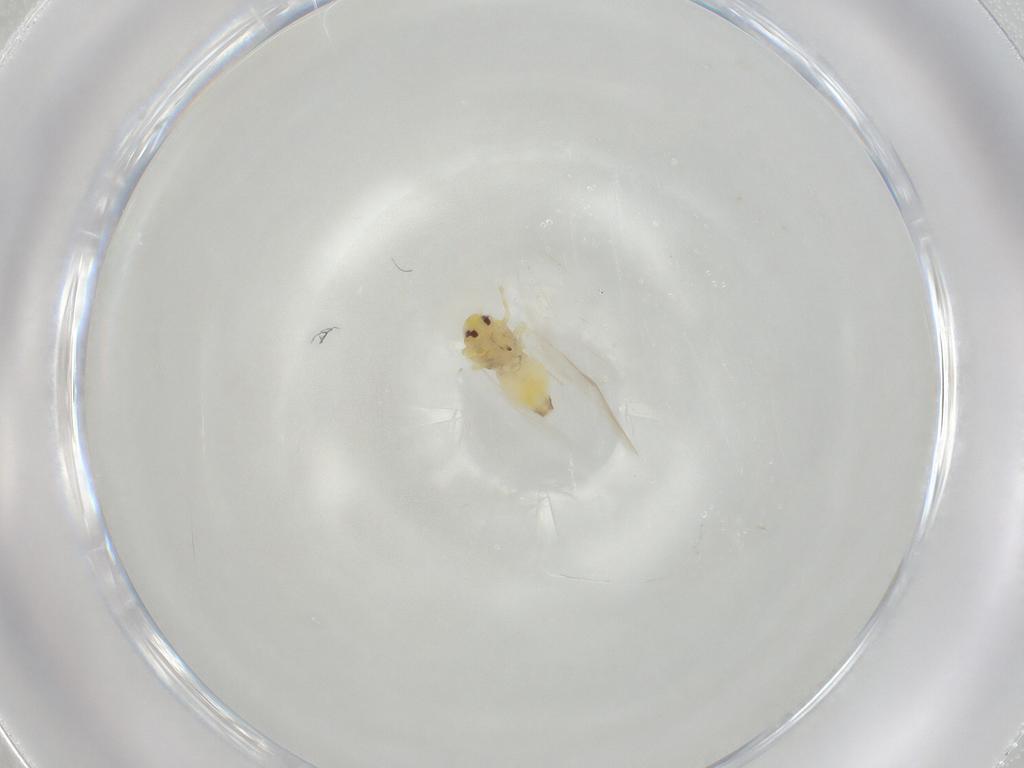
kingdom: Animalia
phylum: Arthropoda
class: Insecta
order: Hemiptera
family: Aleyrodidae
